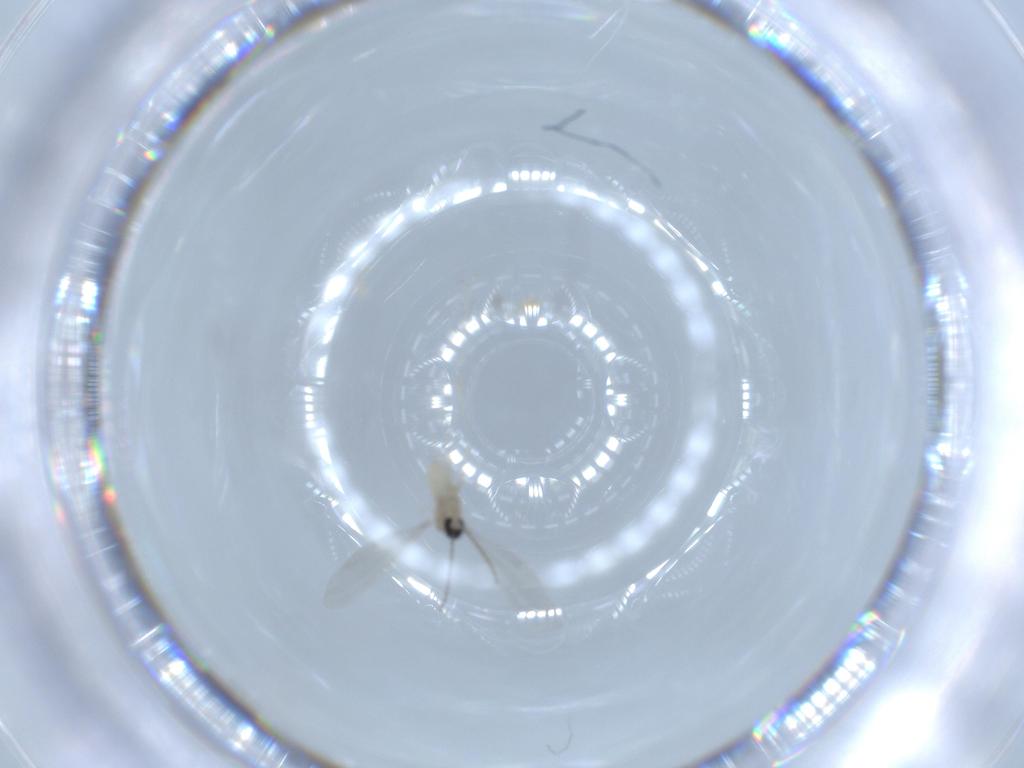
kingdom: Animalia
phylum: Arthropoda
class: Insecta
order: Diptera
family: Cecidomyiidae
